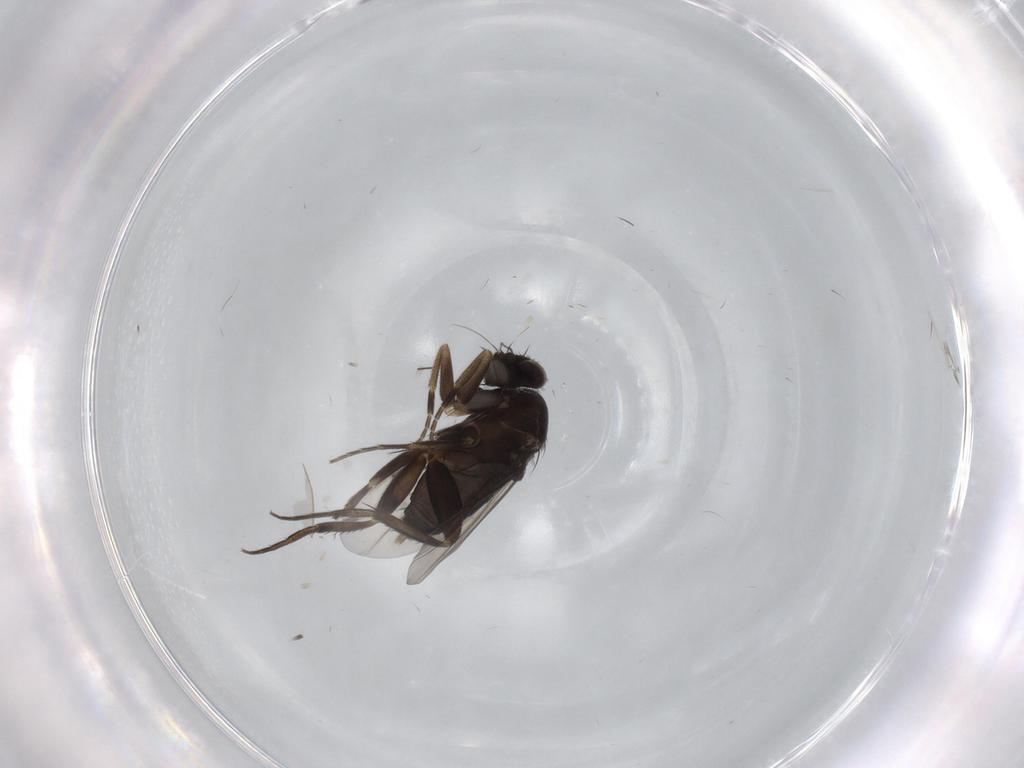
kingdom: Animalia
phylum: Arthropoda
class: Insecta
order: Diptera
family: Phoridae
